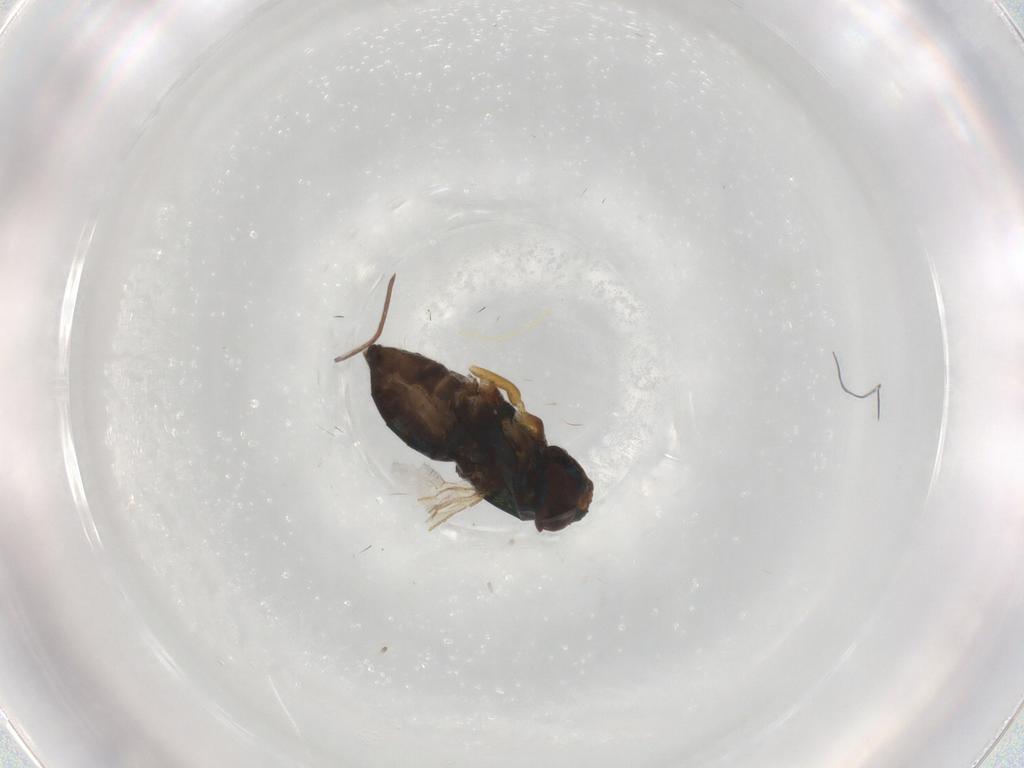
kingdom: Animalia
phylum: Arthropoda
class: Insecta
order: Diptera
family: Dolichopodidae
